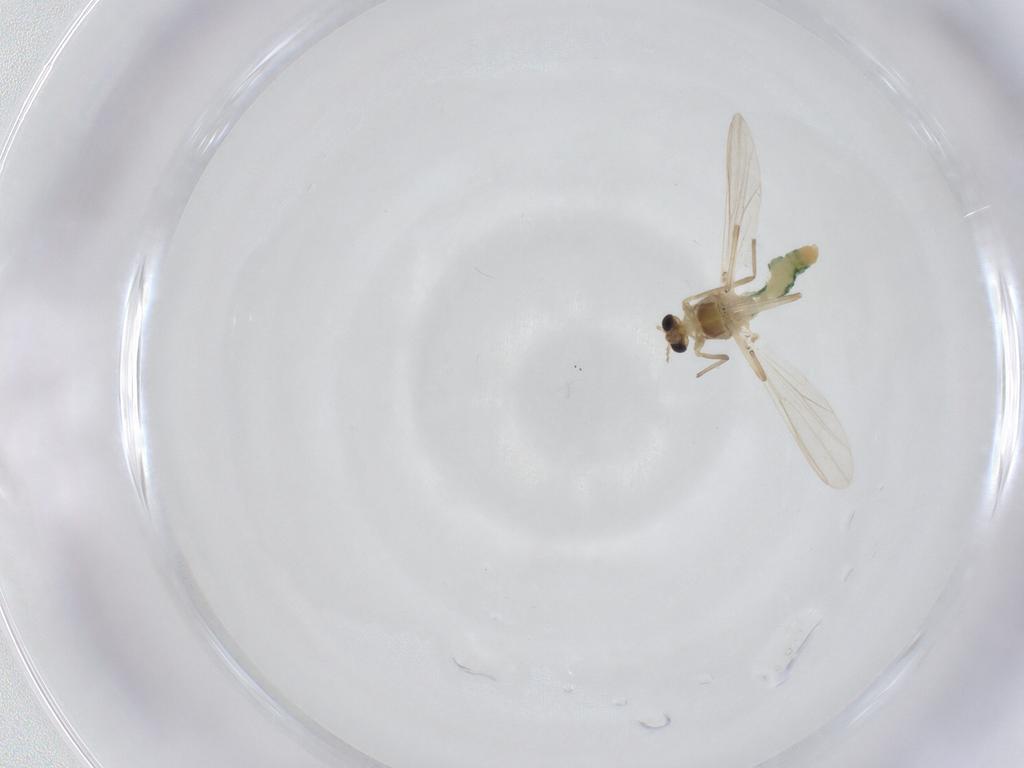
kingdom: Animalia
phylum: Arthropoda
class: Insecta
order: Diptera
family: Chironomidae
